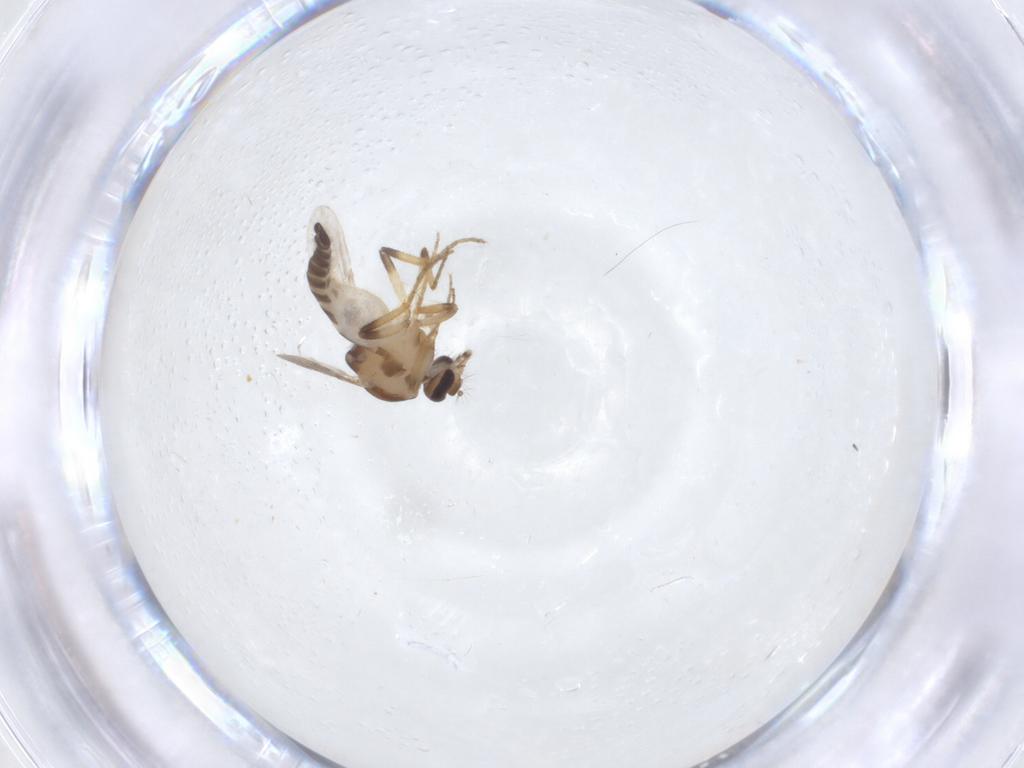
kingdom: Animalia
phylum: Arthropoda
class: Insecta
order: Diptera
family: Ceratopogonidae
